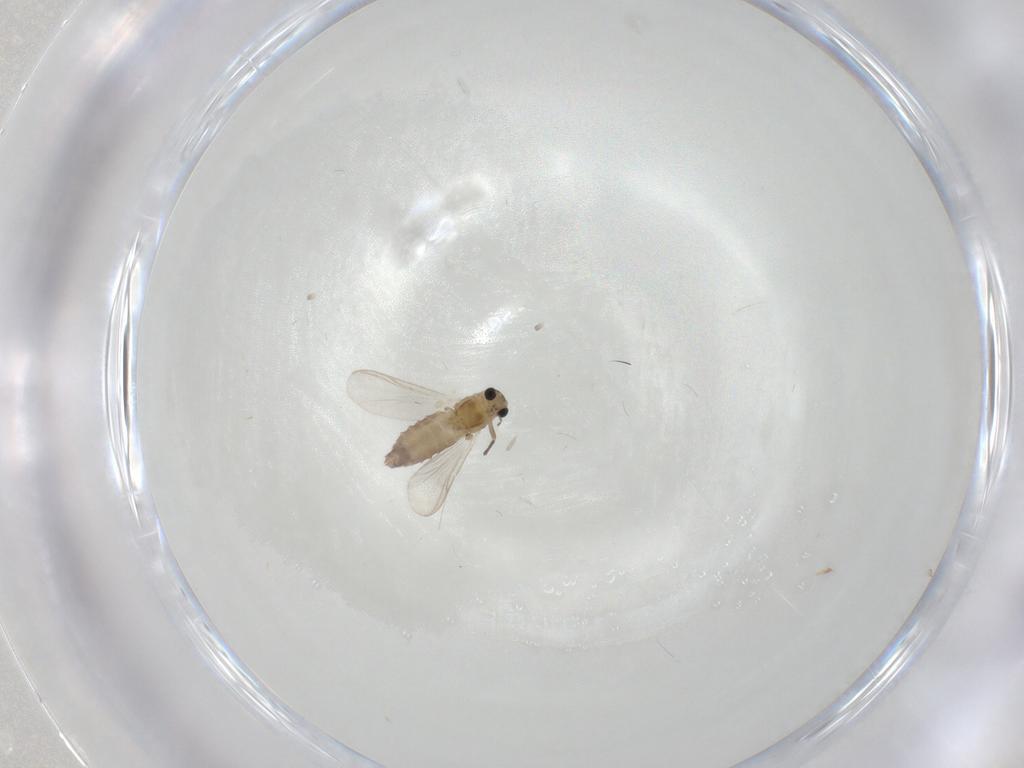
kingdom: Animalia
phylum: Arthropoda
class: Insecta
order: Diptera
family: Chironomidae
